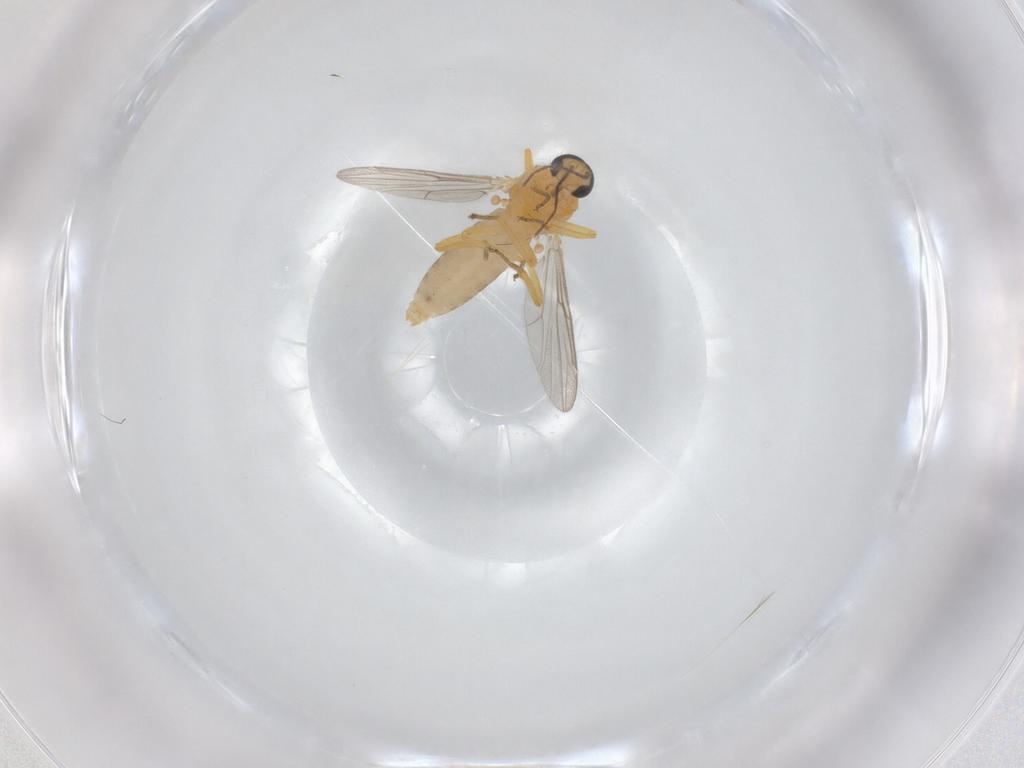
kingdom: Animalia
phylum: Arthropoda
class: Insecta
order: Diptera
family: Ceratopogonidae
